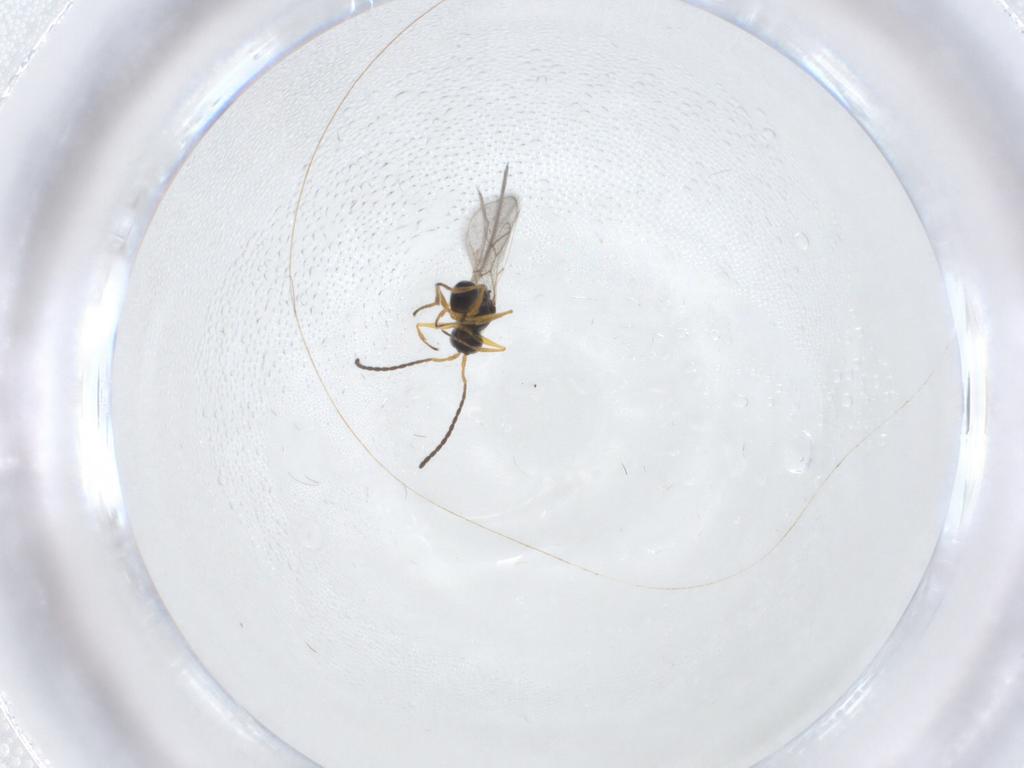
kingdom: Animalia
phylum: Arthropoda
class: Insecta
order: Hymenoptera
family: Figitidae
